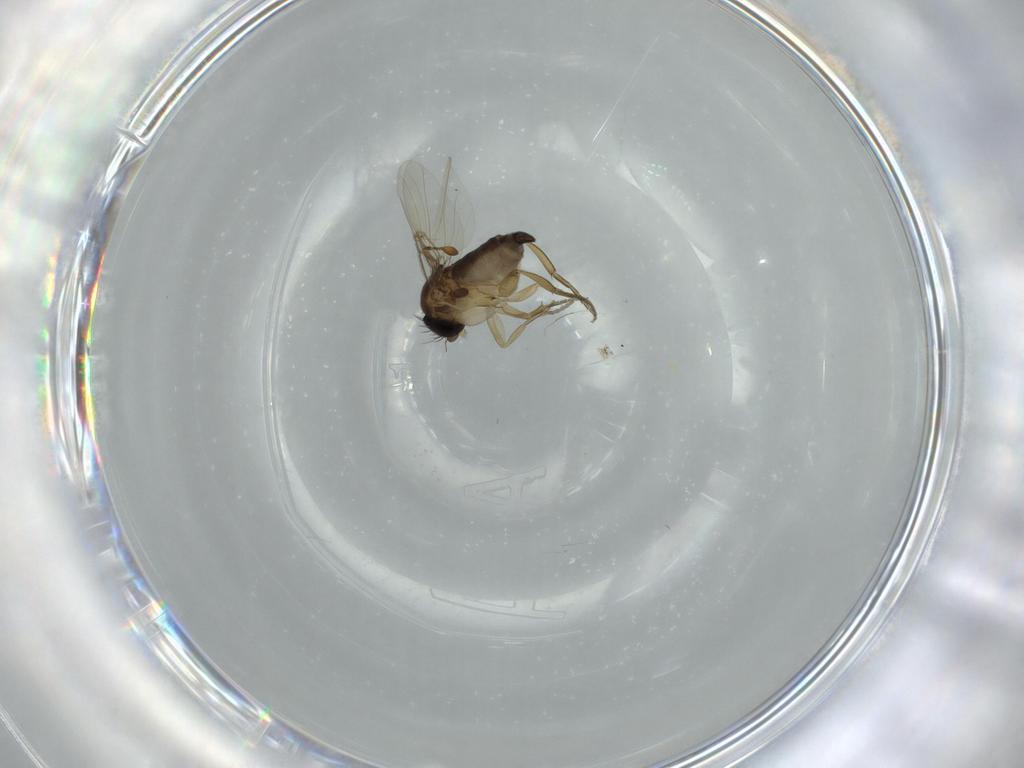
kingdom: Animalia
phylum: Arthropoda
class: Insecta
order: Diptera
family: Phoridae
